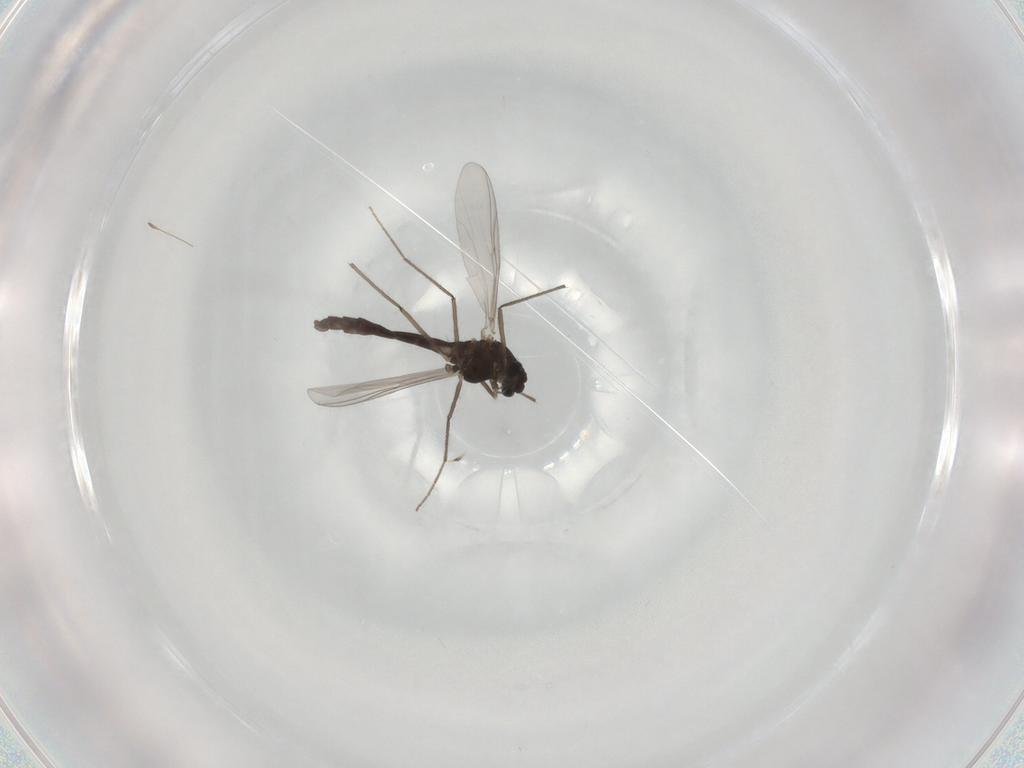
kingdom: Animalia
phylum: Arthropoda
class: Insecta
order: Diptera
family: Chironomidae
